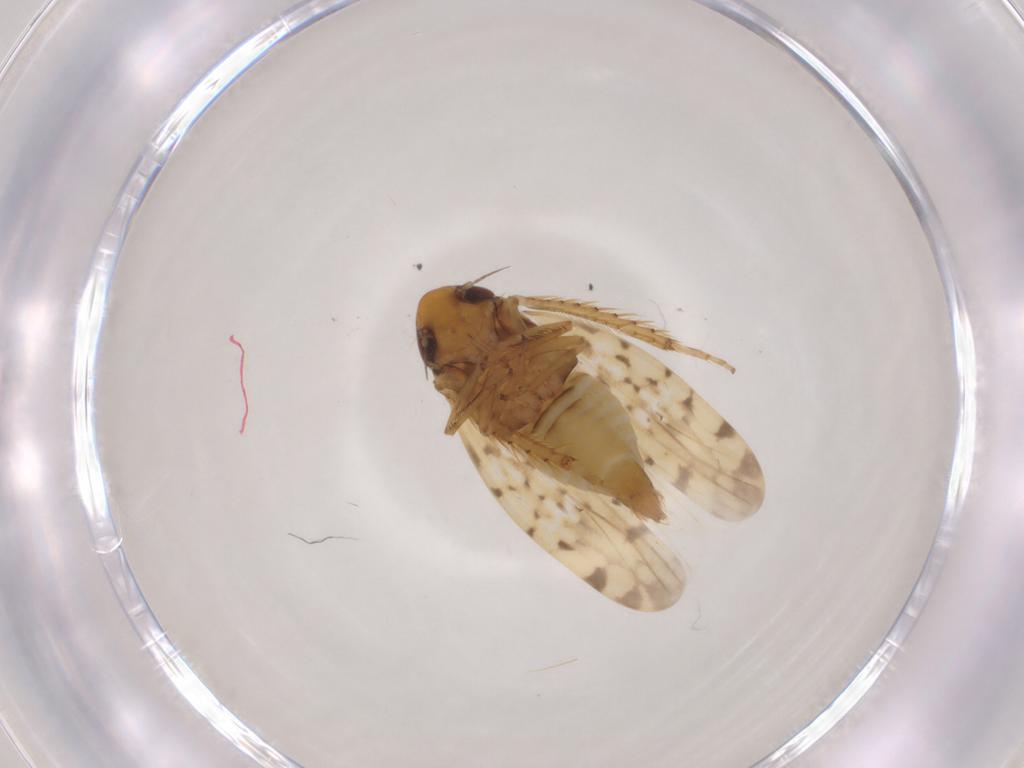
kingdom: Animalia
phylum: Arthropoda
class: Insecta
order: Hemiptera
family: Cicadellidae
